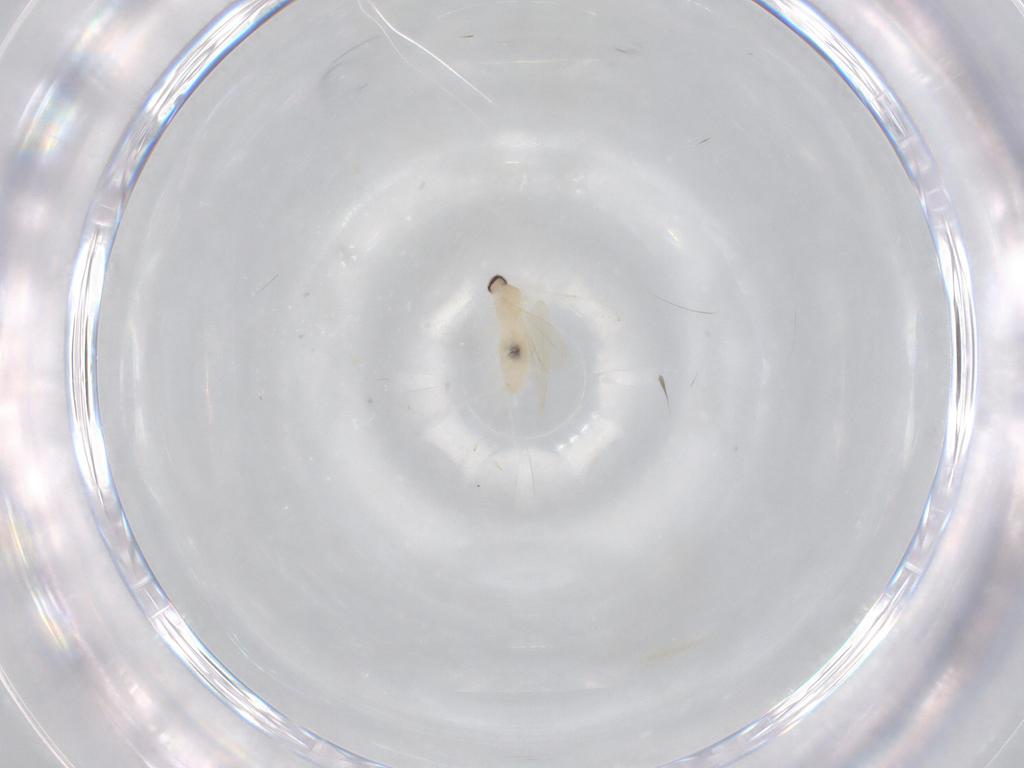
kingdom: Animalia
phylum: Arthropoda
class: Insecta
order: Diptera
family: Cecidomyiidae
